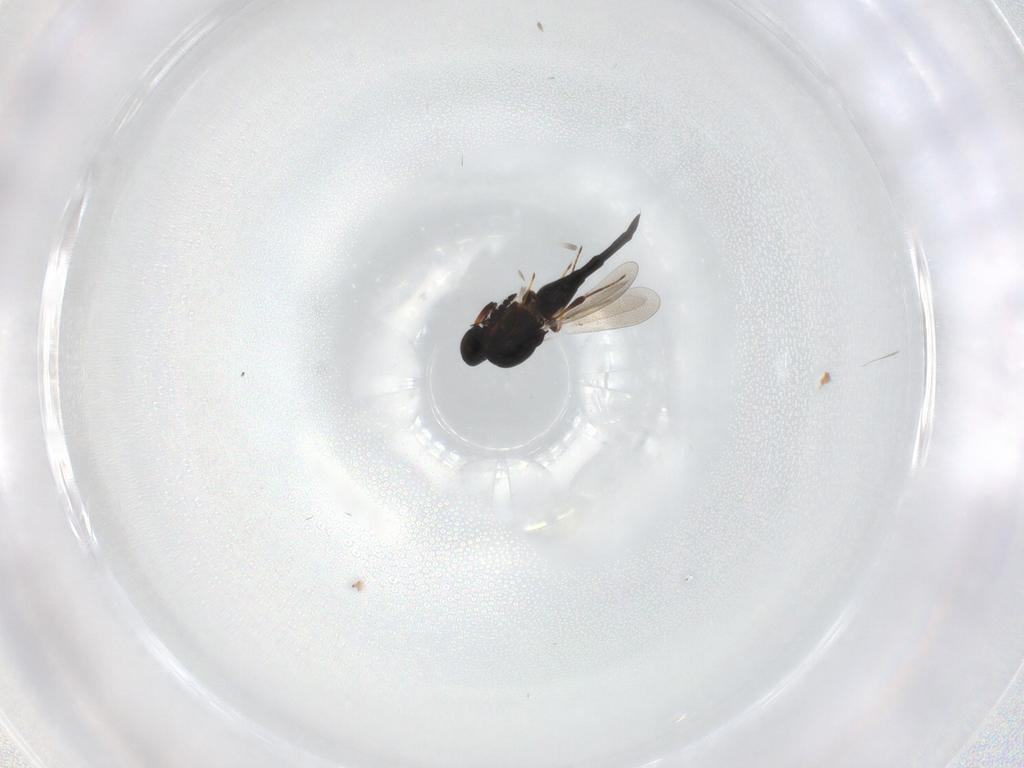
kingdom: Animalia
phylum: Arthropoda
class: Insecta
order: Hymenoptera
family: Platygastridae
